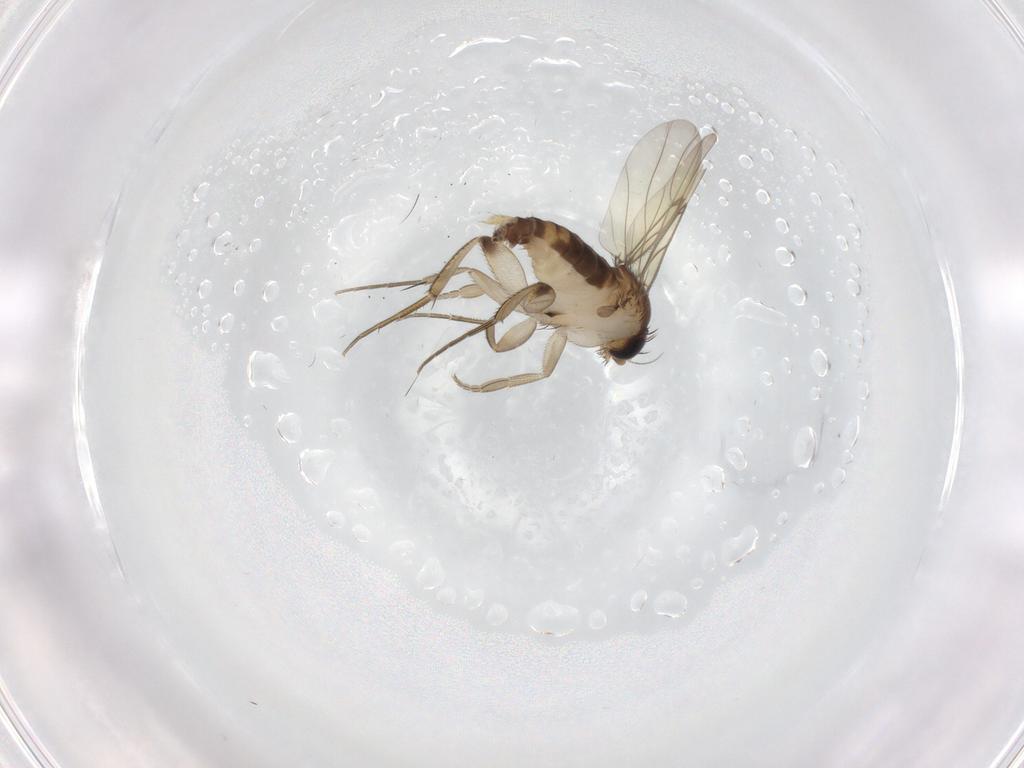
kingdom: Animalia
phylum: Arthropoda
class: Insecta
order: Diptera
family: Phoridae
